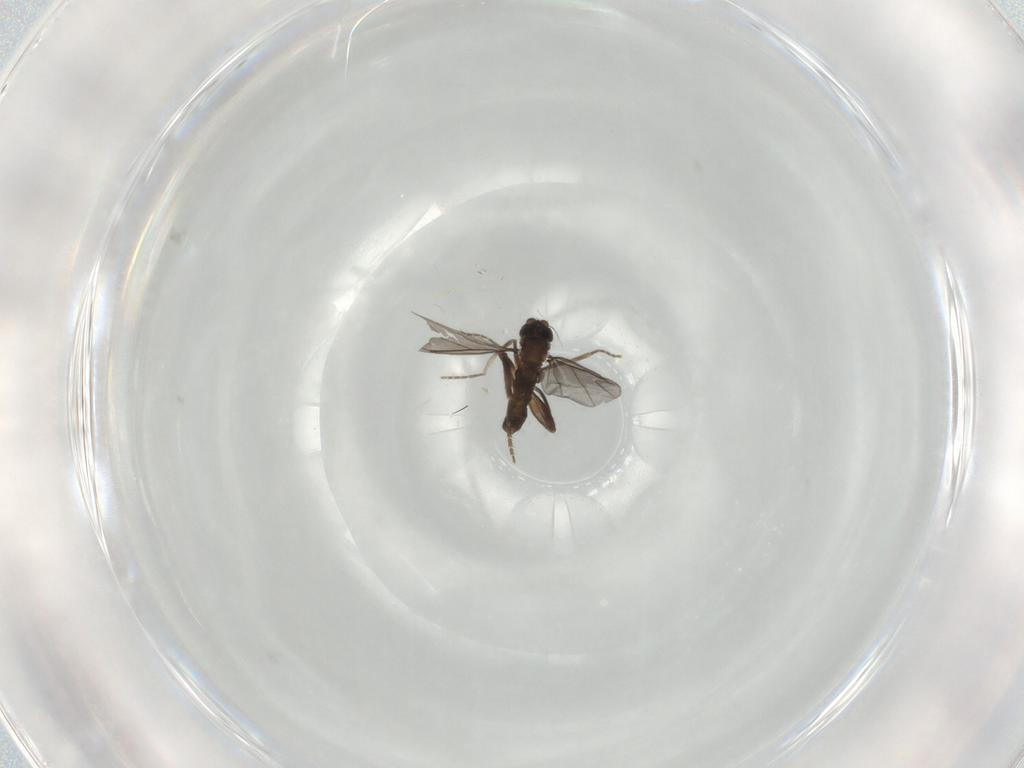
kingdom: Animalia
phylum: Arthropoda
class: Insecta
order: Diptera
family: Phoridae
